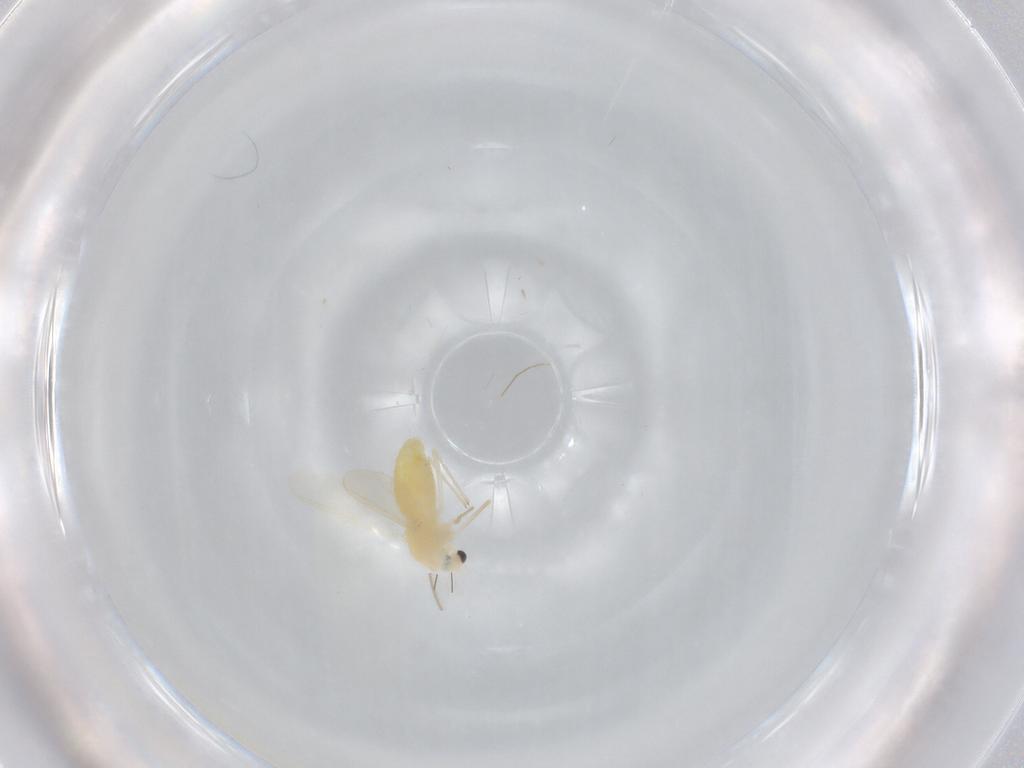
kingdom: Animalia
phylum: Arthropoda
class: Insecta
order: Diptera
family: Chironomidae
